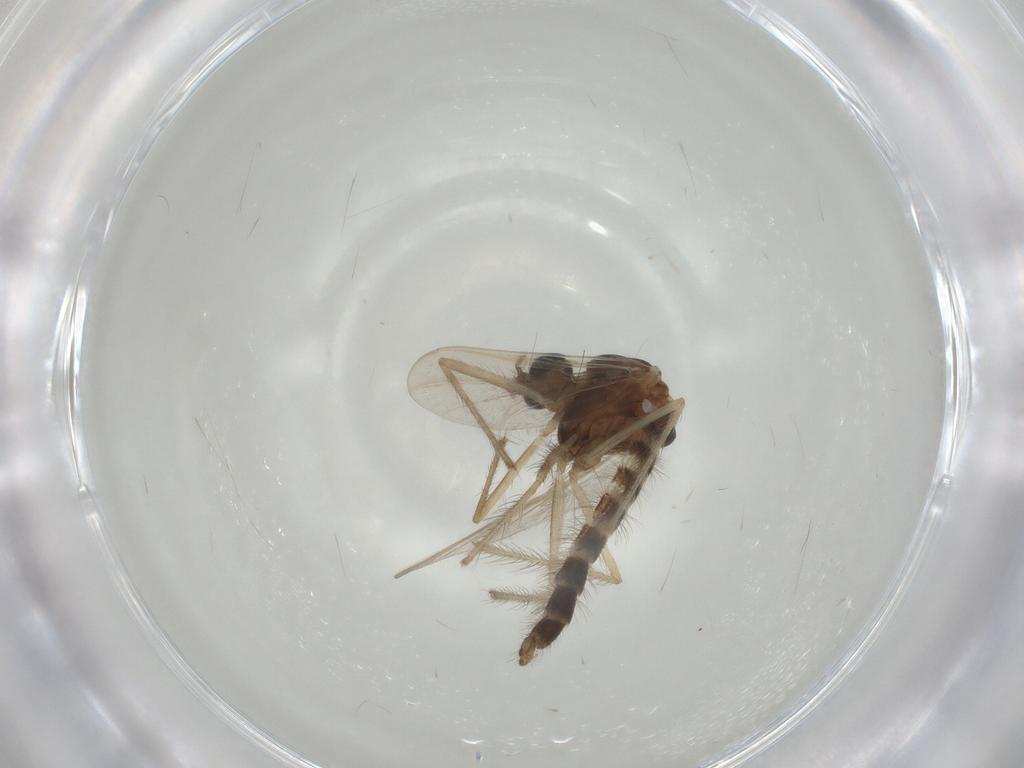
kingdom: Animalia
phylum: Arthropoda
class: Insecta
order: Diptera
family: Chironomidae
